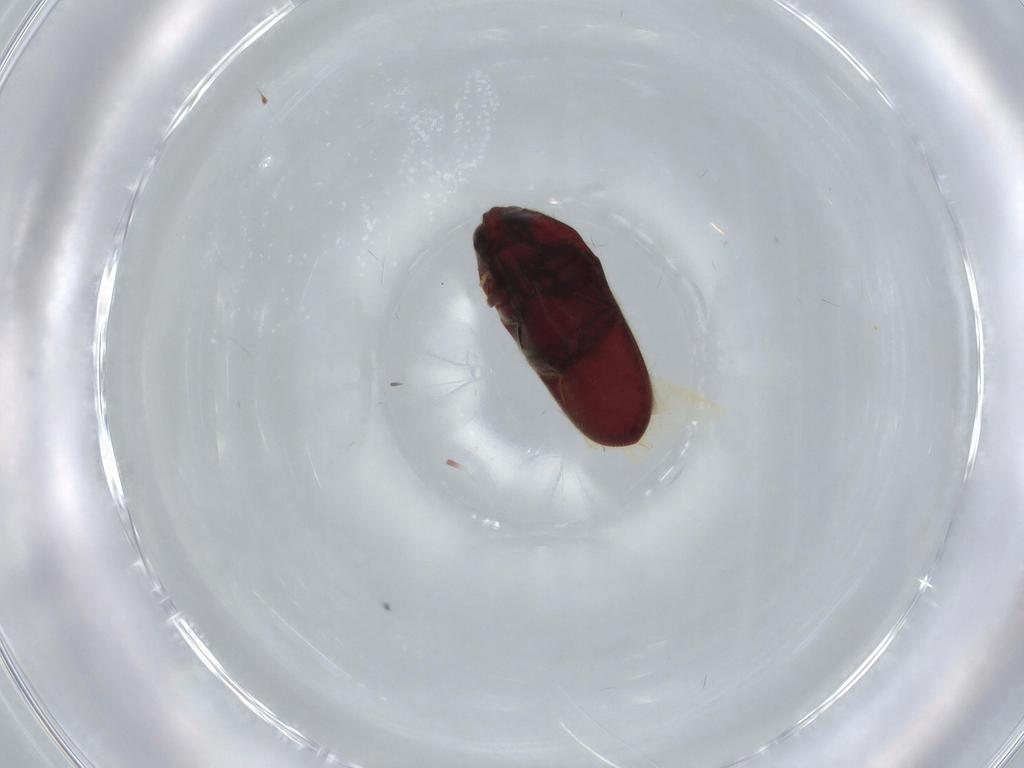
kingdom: Animalia
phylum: Arthropoda
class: Insecta
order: Coleoptera
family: Throscidae
